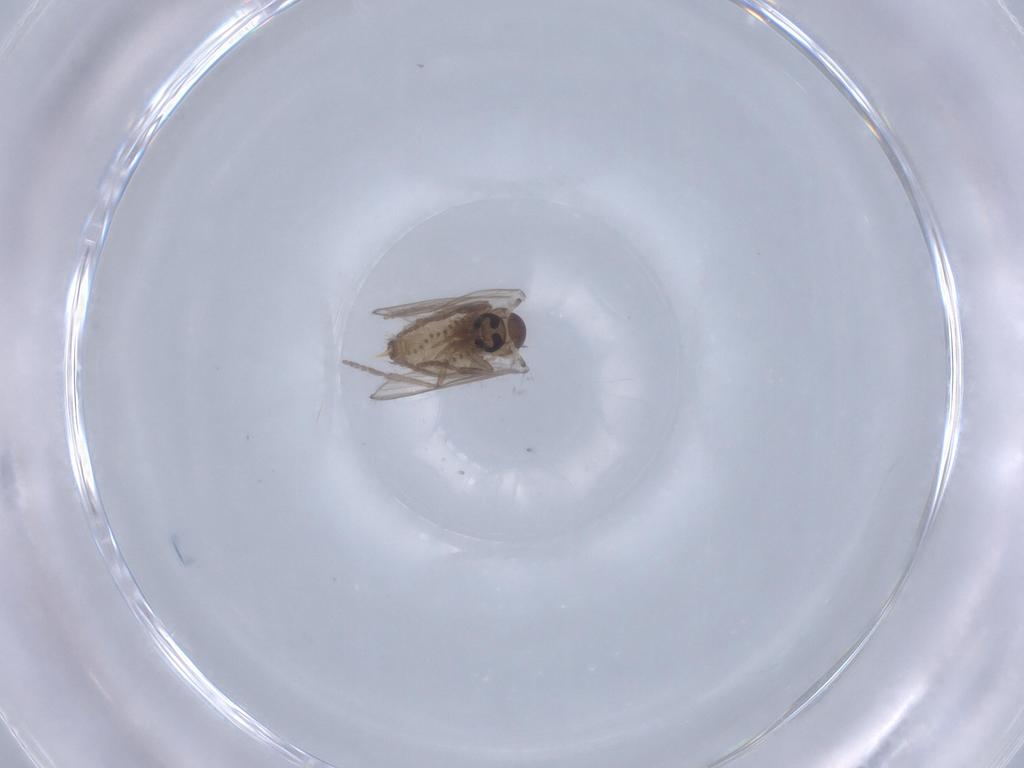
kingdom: Animalia
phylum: Arthropoda
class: Insecta
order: Diptera
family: Psychodidae
